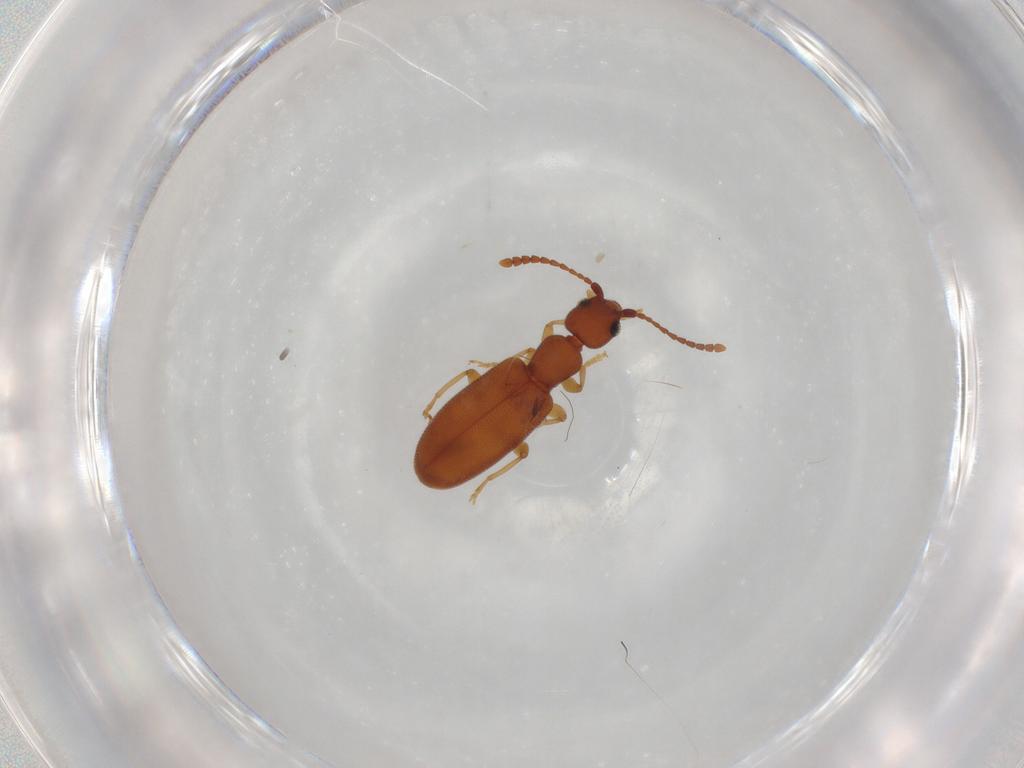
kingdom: Animalia
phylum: Arthropoda
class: Insecta
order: Coleoptera
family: Anthicidae
